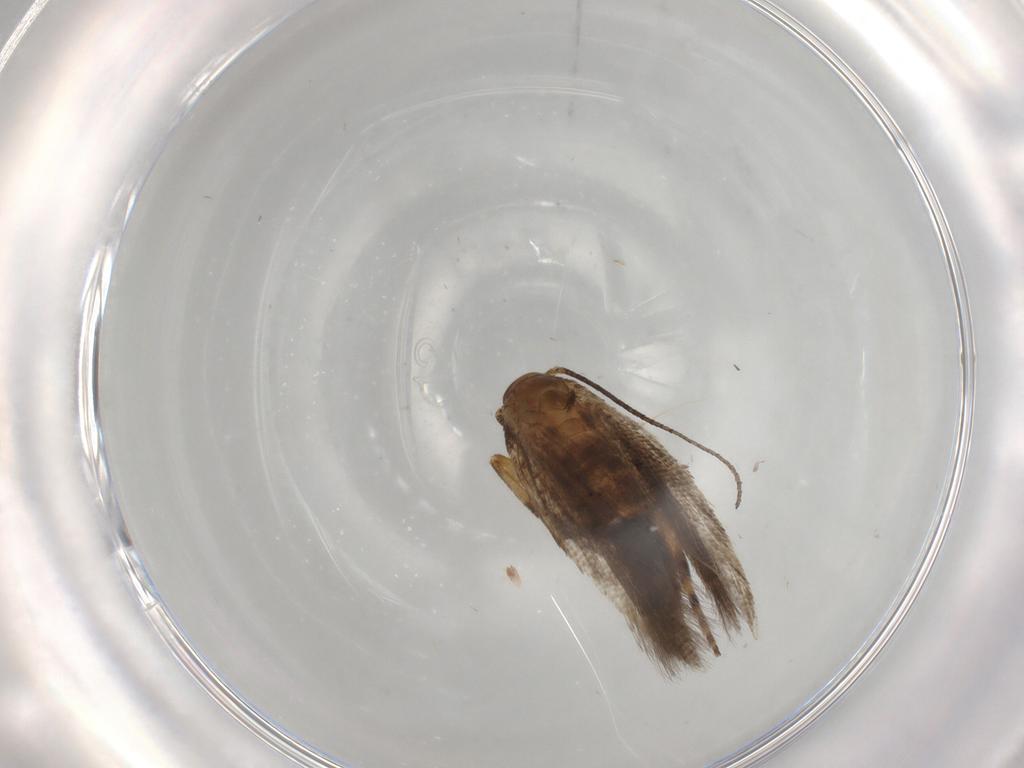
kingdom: Animalia
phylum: Arthropoda
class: Insecta
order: Lepidoptera
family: Gelechiidae
